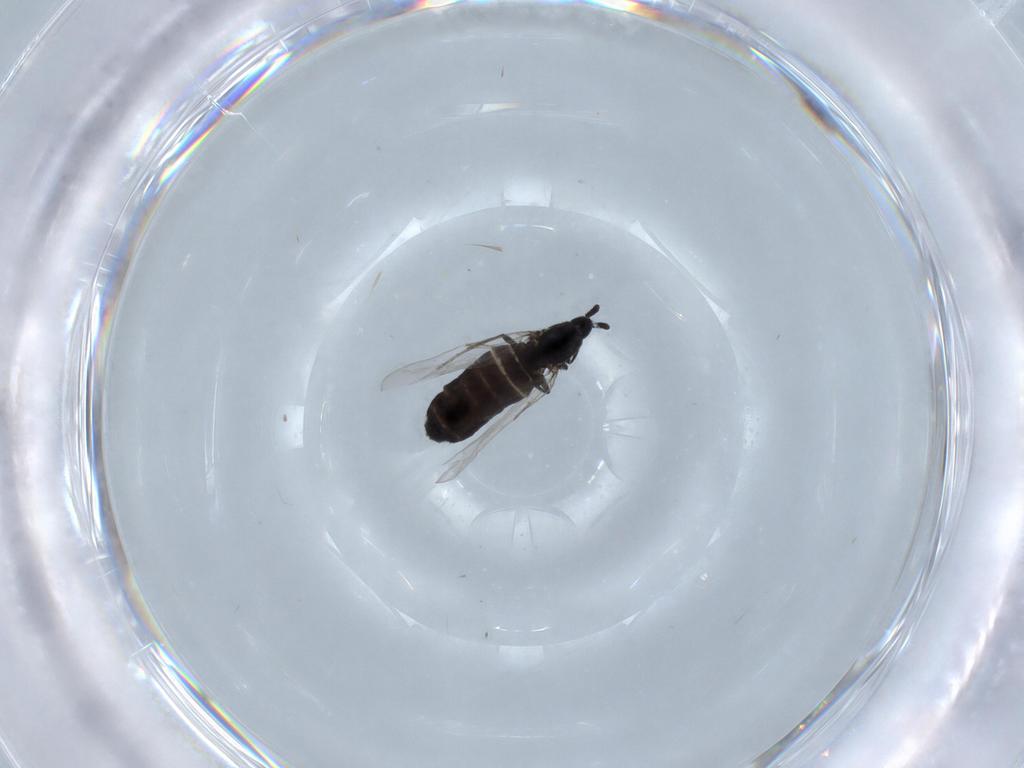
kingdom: Animalia
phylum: Arthropoda
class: Insecta
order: Diptera
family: Scatopsidae
